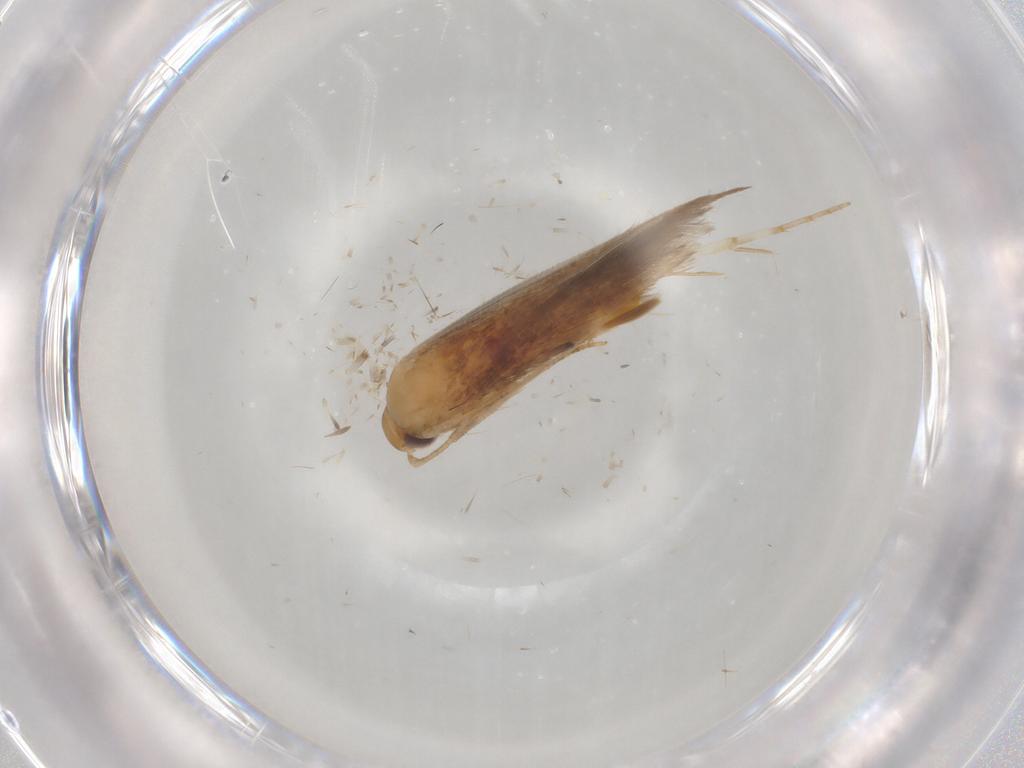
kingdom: Animalia
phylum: Arthropoda
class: Insecta
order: Lepidoptera
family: Cosmopterigidae
